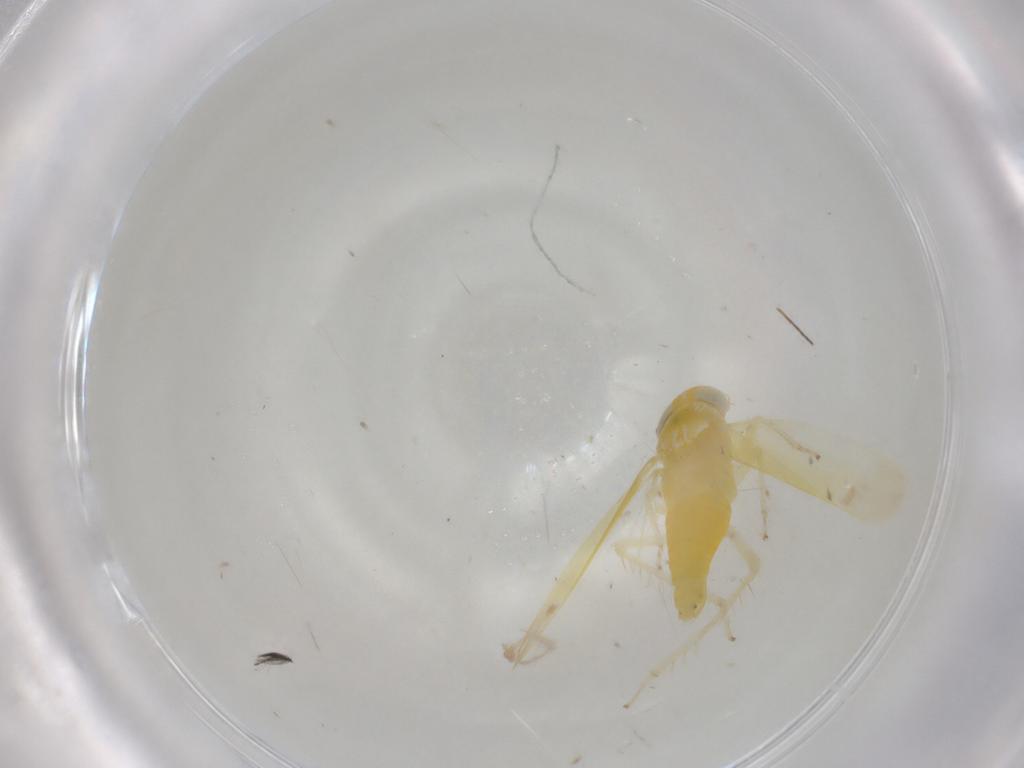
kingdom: Animalia
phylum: Arthropoda
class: Insecta
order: Hemiptera
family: Cicadellidae
